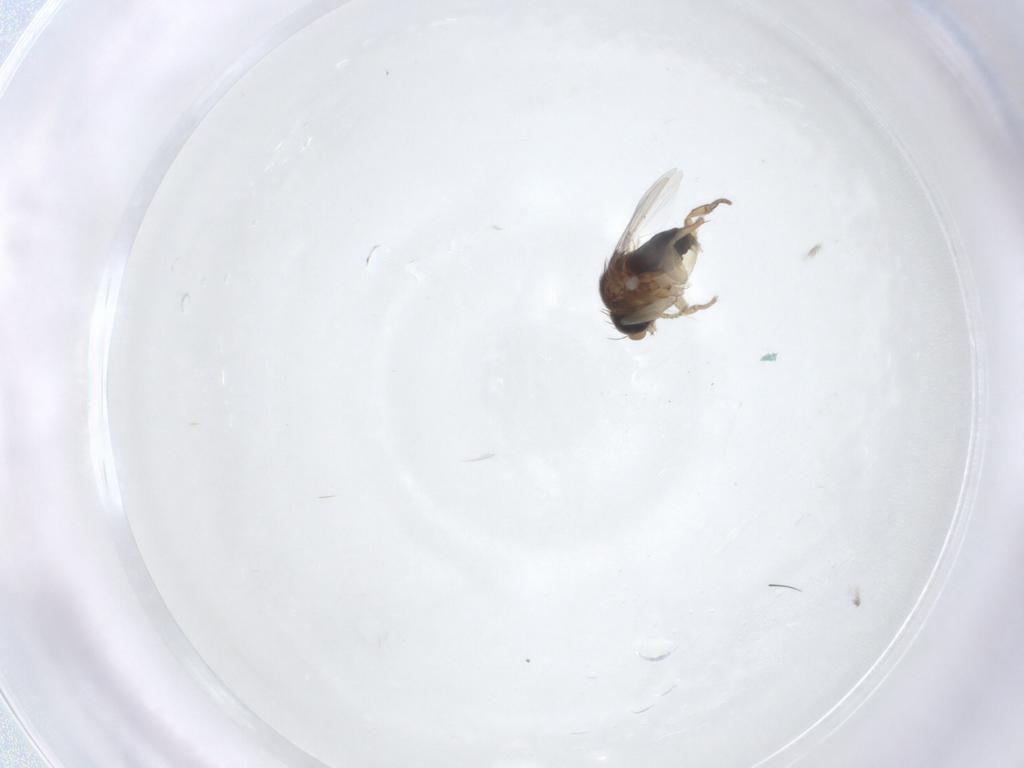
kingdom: Animalia
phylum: Arthropoda
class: Insecta
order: Diptera
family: Phoridae
